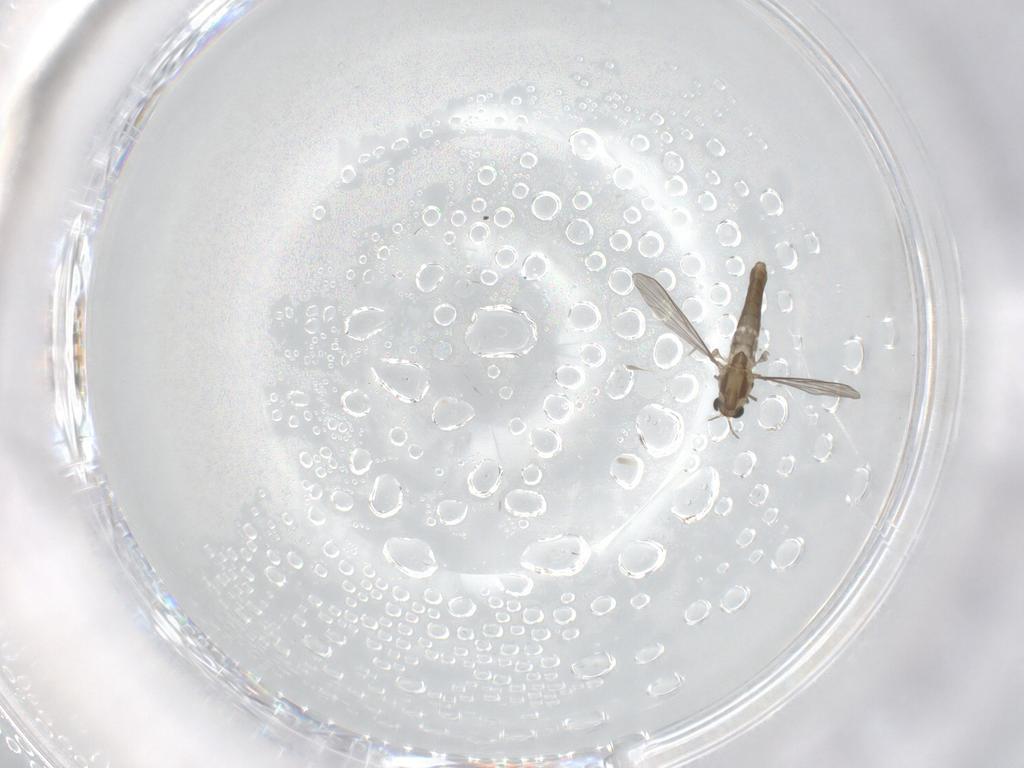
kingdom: Animalia
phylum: Arthropoda
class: Insecta
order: Diptera
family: Cecidomyiidae
